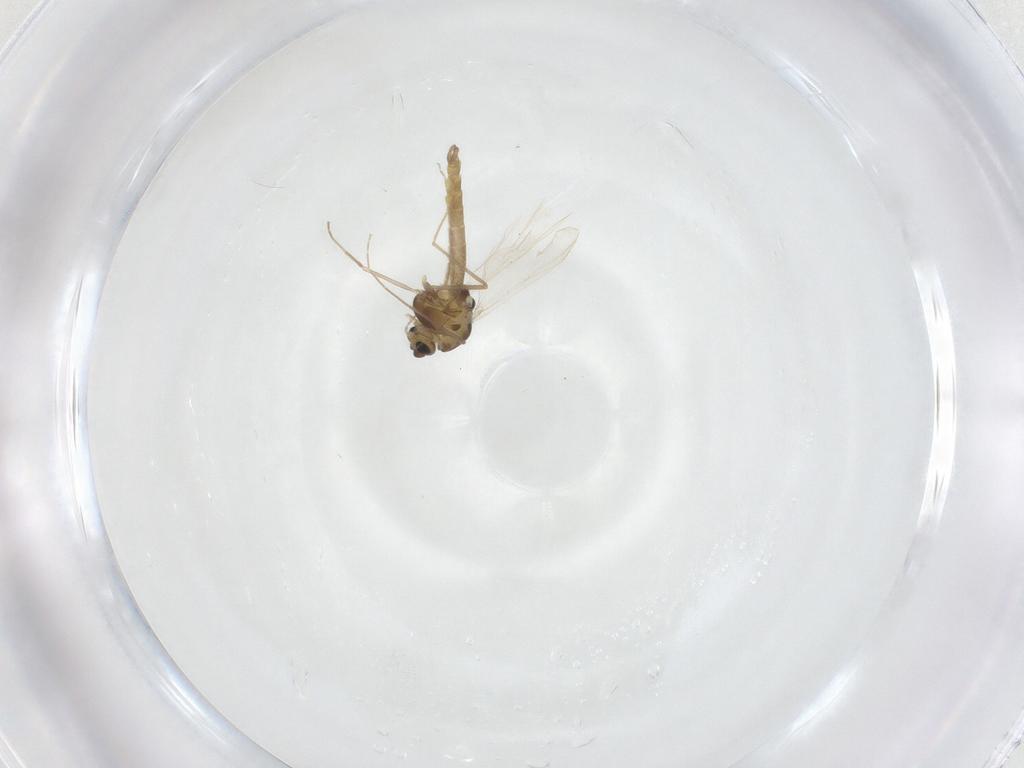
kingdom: Animalia
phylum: Arthropoda
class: Insecta
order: Diptera
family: Chironomidae
